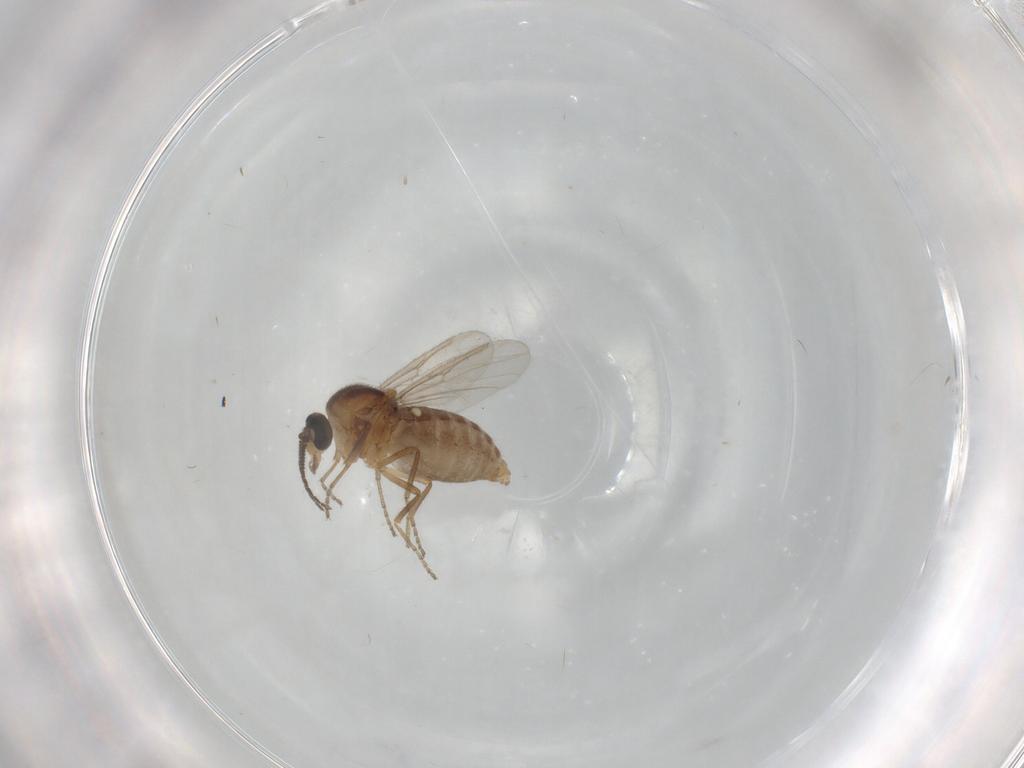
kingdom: Animalia
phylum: Arthropoda
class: Insecta
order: Diptera
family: Ceratopogonidae
